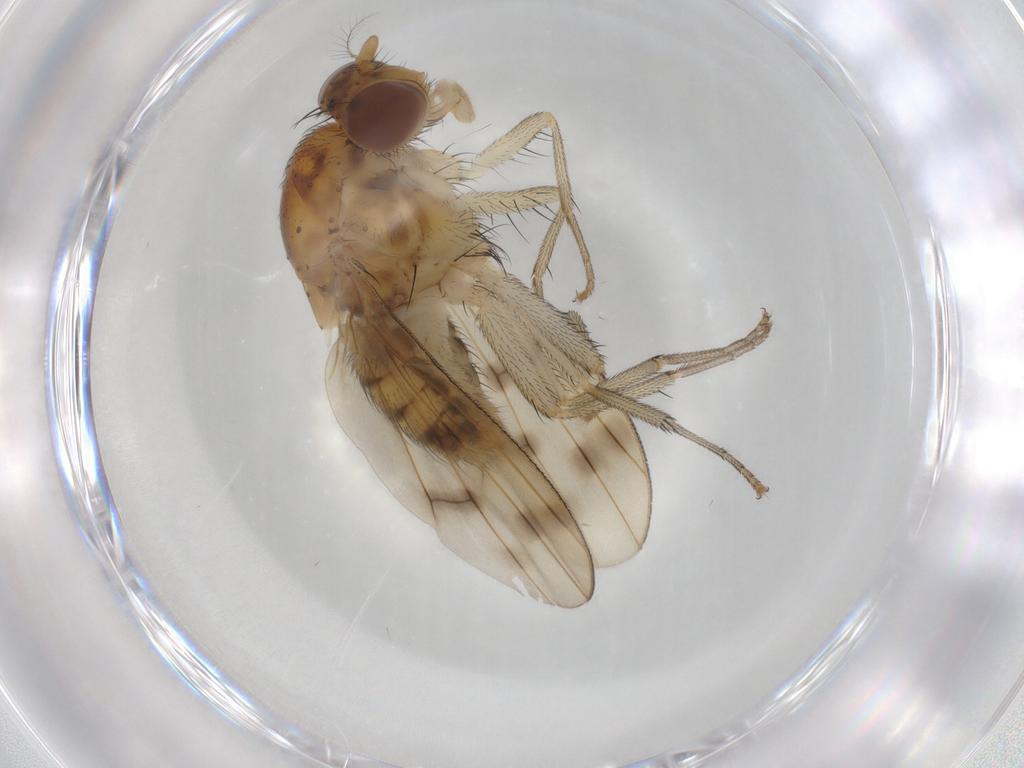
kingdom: Animalia
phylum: Arthropoda
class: Insecta
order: Diptera
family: Lauxaniidae
